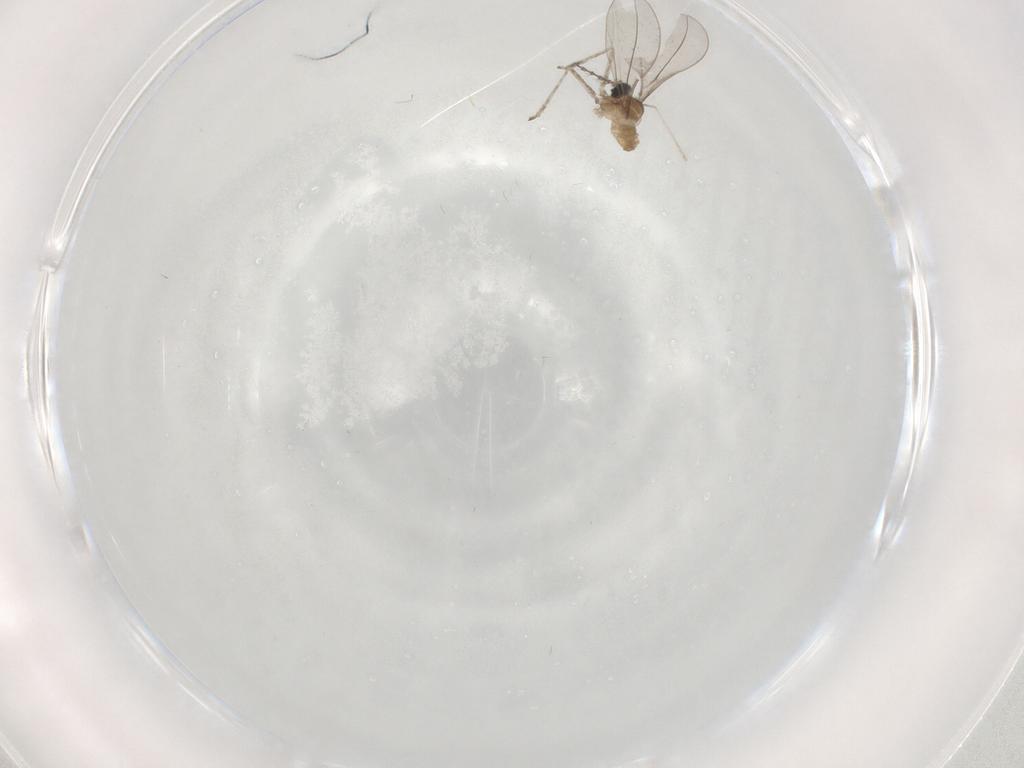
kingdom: Animalia
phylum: Arthropoda
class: Insecta
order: Diptera
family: Cecidomyiidae
